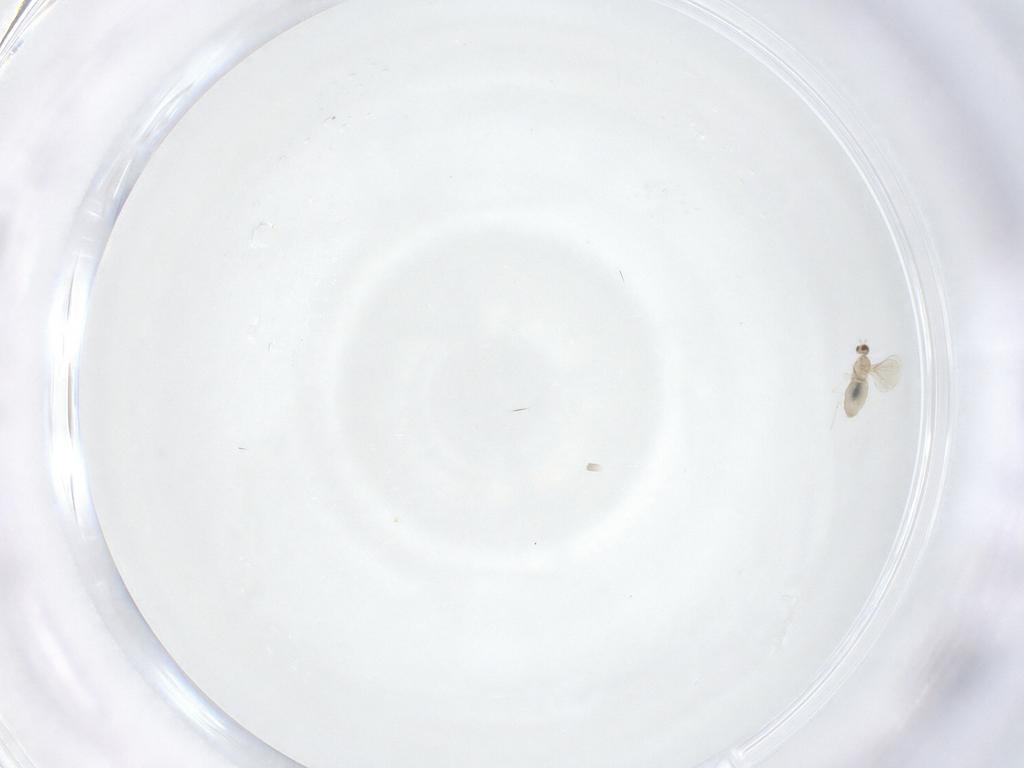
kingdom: Animalia
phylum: Arthropoda
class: Insecta
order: Diptera
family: Cecidomyiidae
